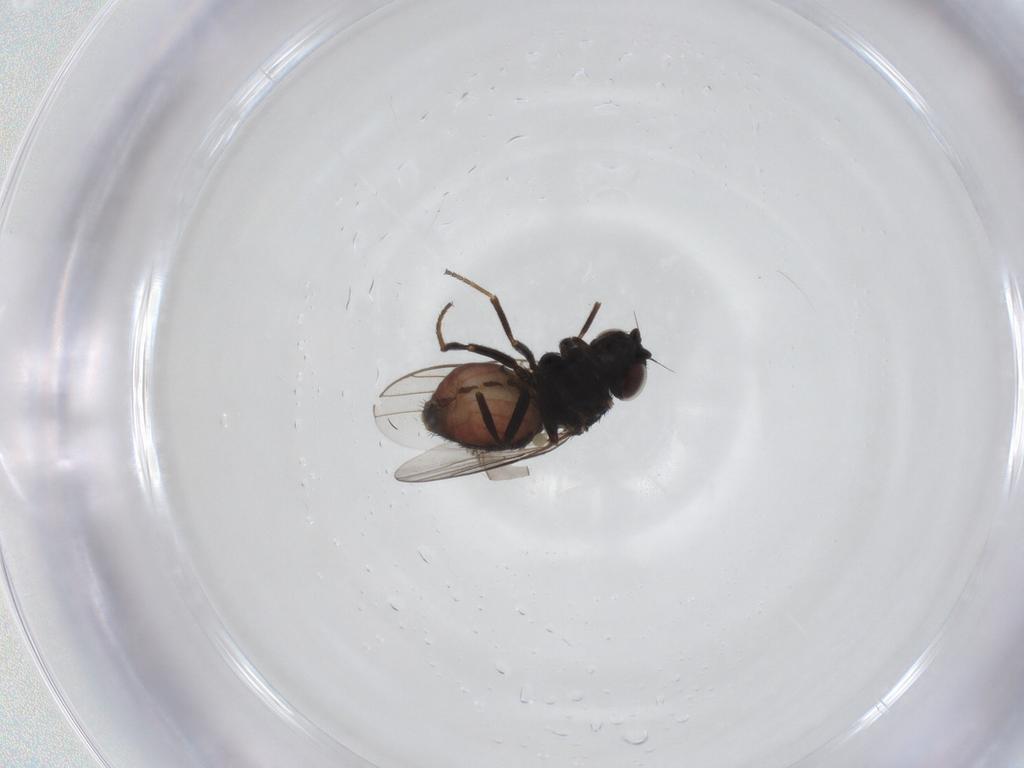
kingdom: Animalia
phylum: Arthropoda
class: Insecta
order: Diptera
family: Chloropidae
